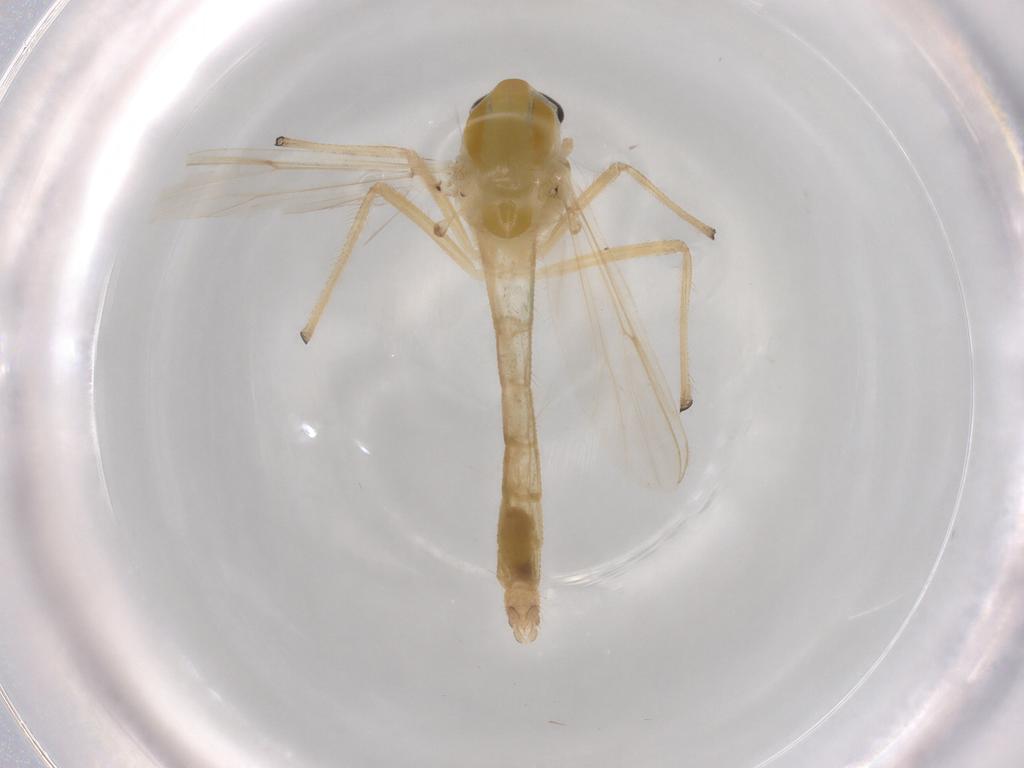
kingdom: Animalia
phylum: Arthropoda
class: Insecta
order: Diptera
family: Chironomidae
